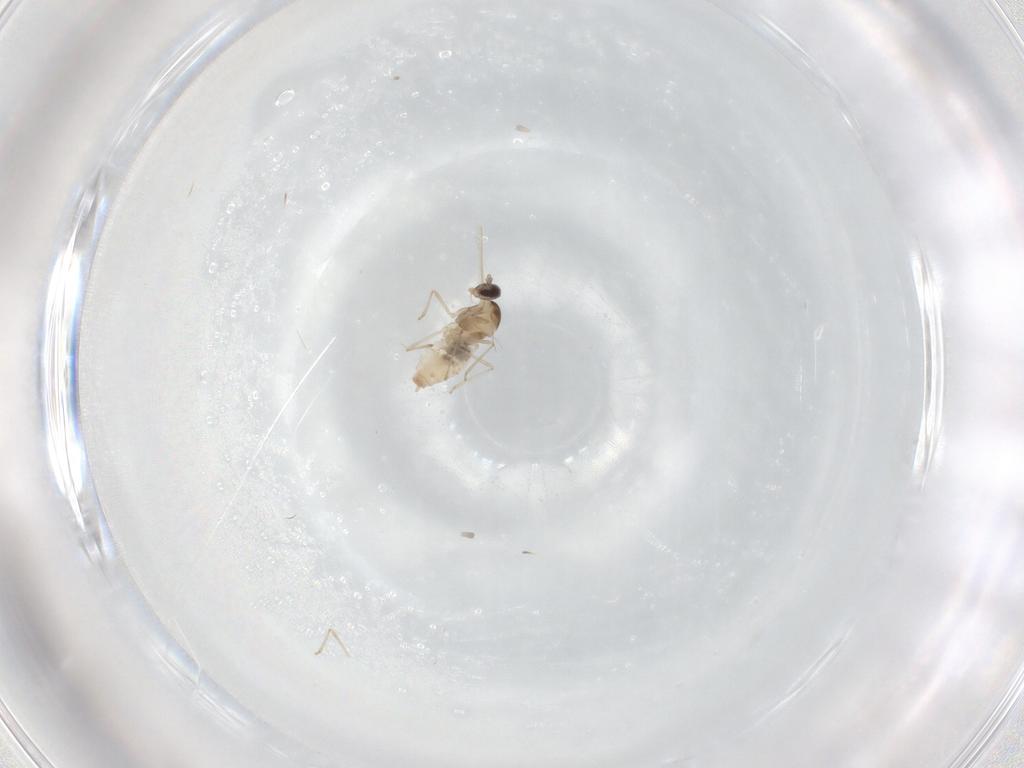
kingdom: Animalia
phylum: Arthropoda
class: Insecta
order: Diptera
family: Cecidomyiidae
